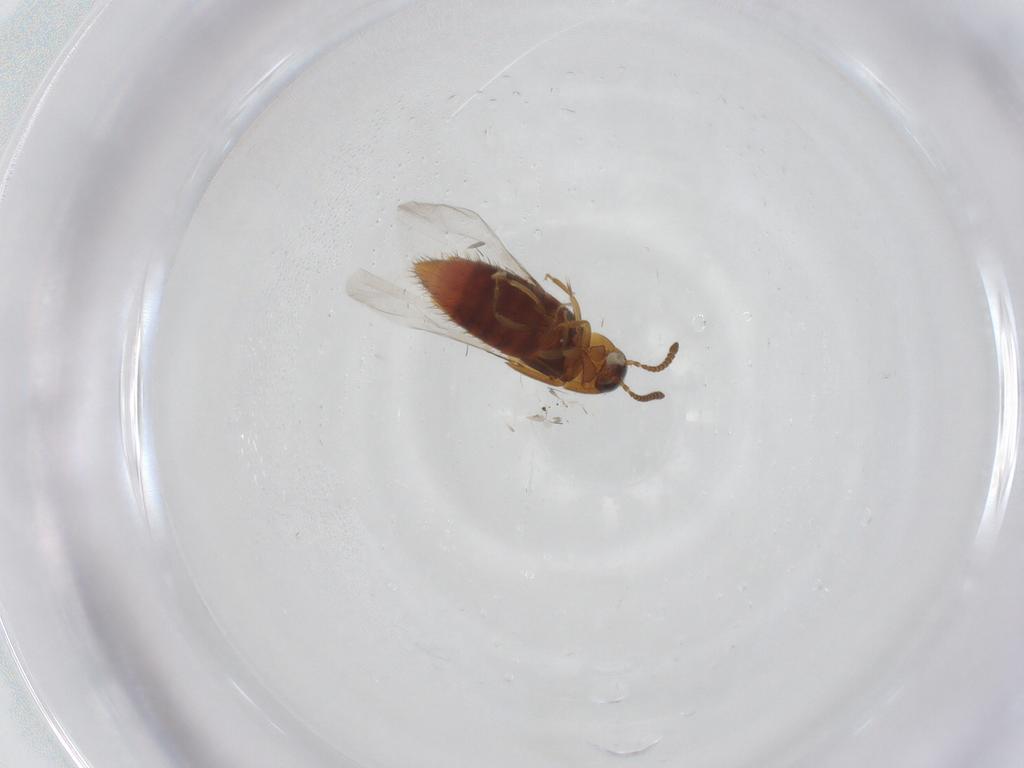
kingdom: Animalia
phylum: Arthropoda
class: Insecta
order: Coleoptera
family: Staphylinidae
